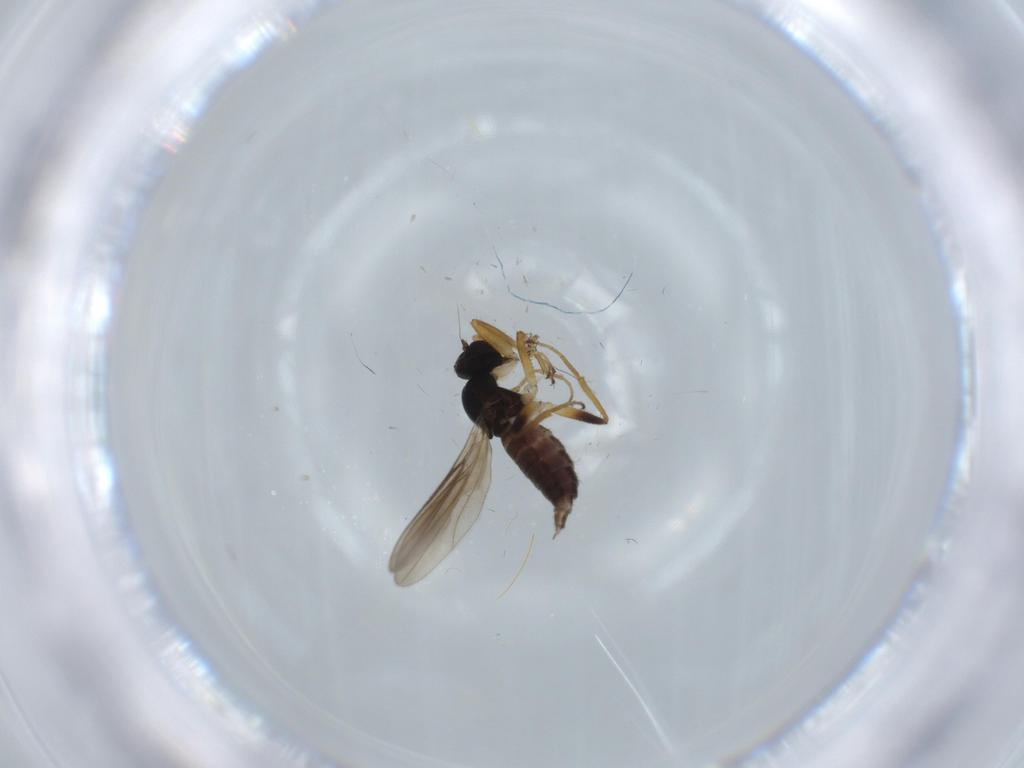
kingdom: Animalia
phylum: Arthropoda
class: Insecta
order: Diptera
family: Hybotidae
